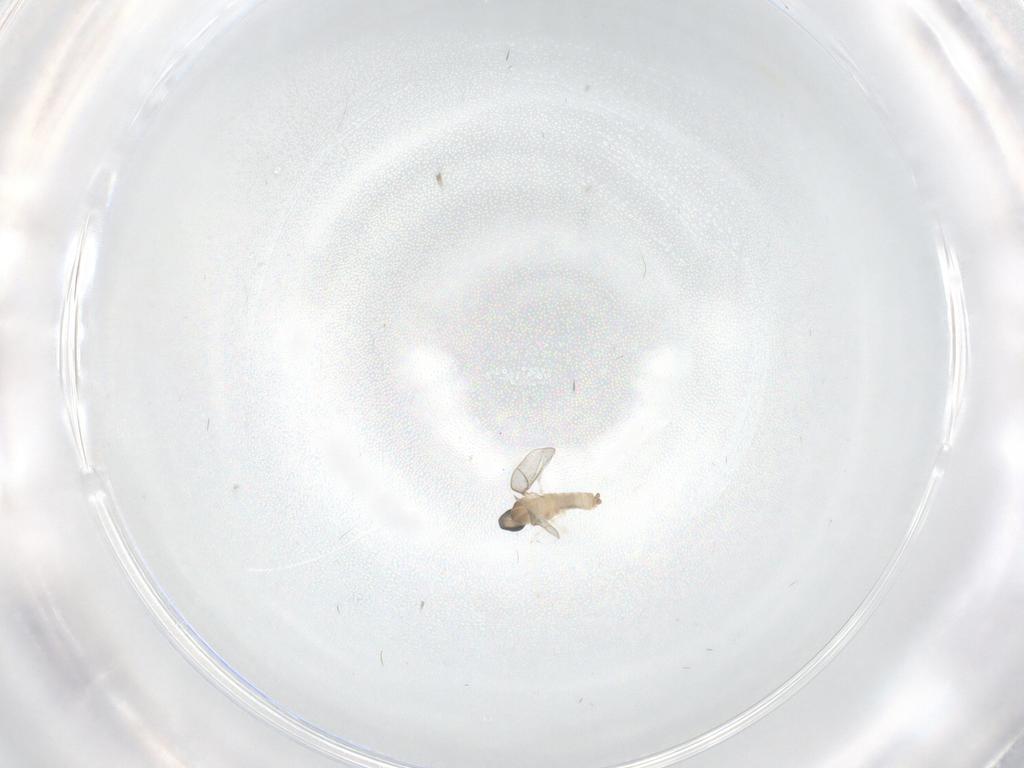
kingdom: Animalia
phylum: Arthropoda
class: Insecta
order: Diptera
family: Cecidomyiidae
